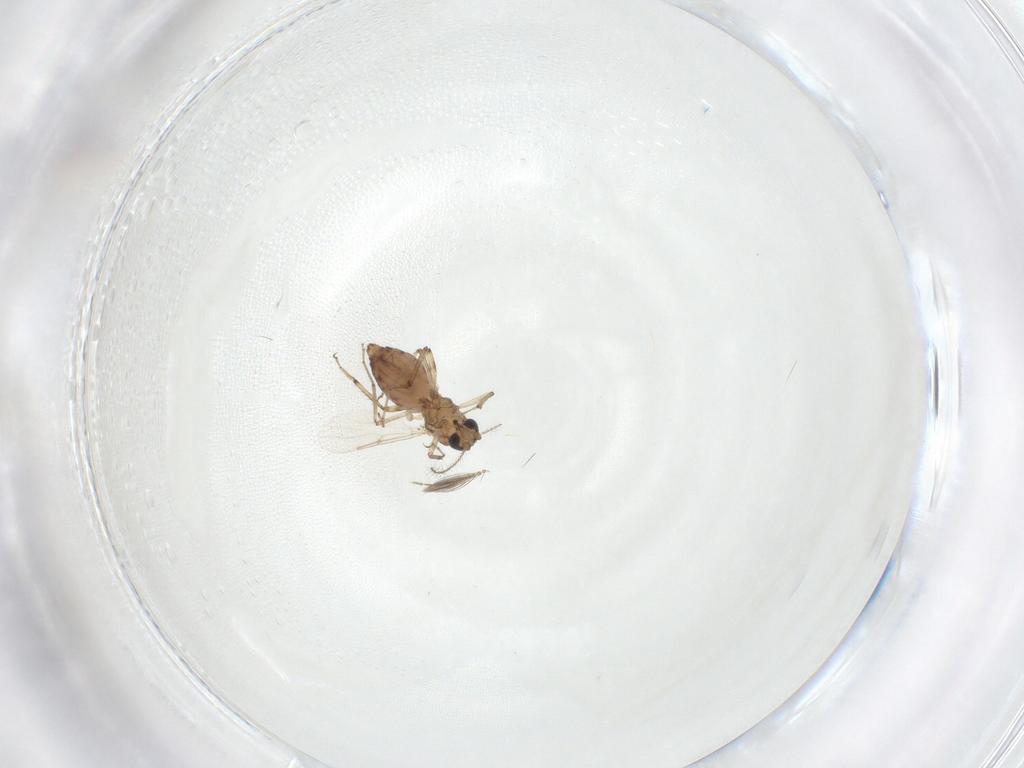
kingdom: Animalia
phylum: Arthropoda
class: Insecta
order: Diptera
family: Ceratopogonidae
